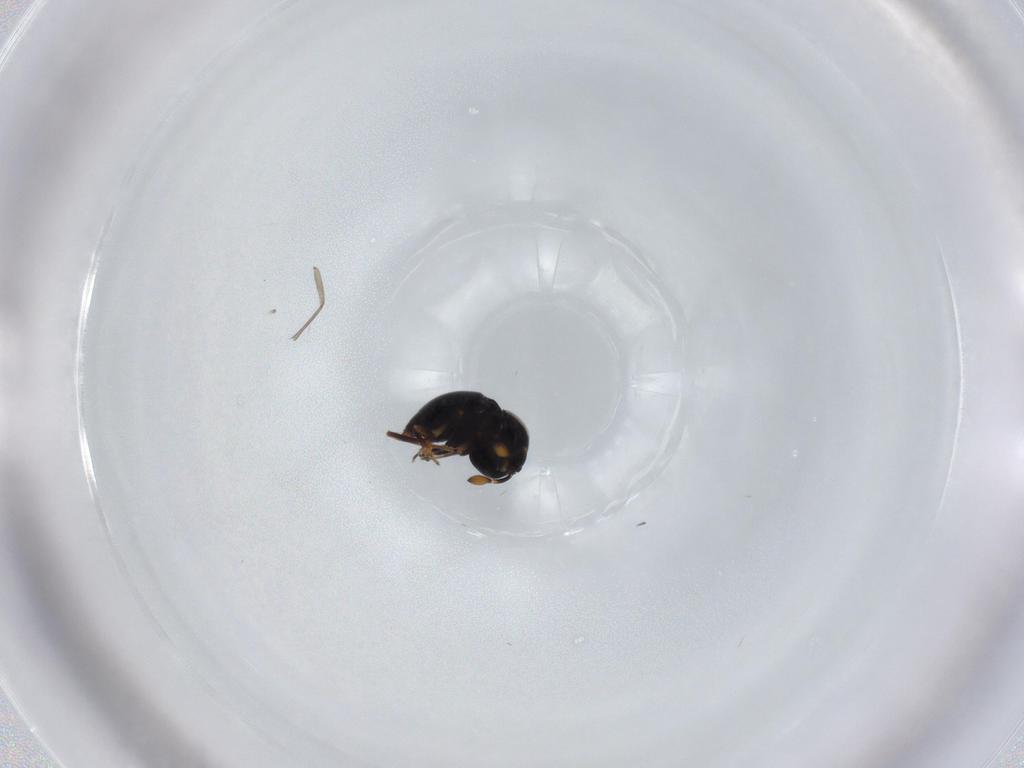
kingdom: Animalia
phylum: Arthropoda
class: Insecta
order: Hymenoptera
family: Scelionidae
